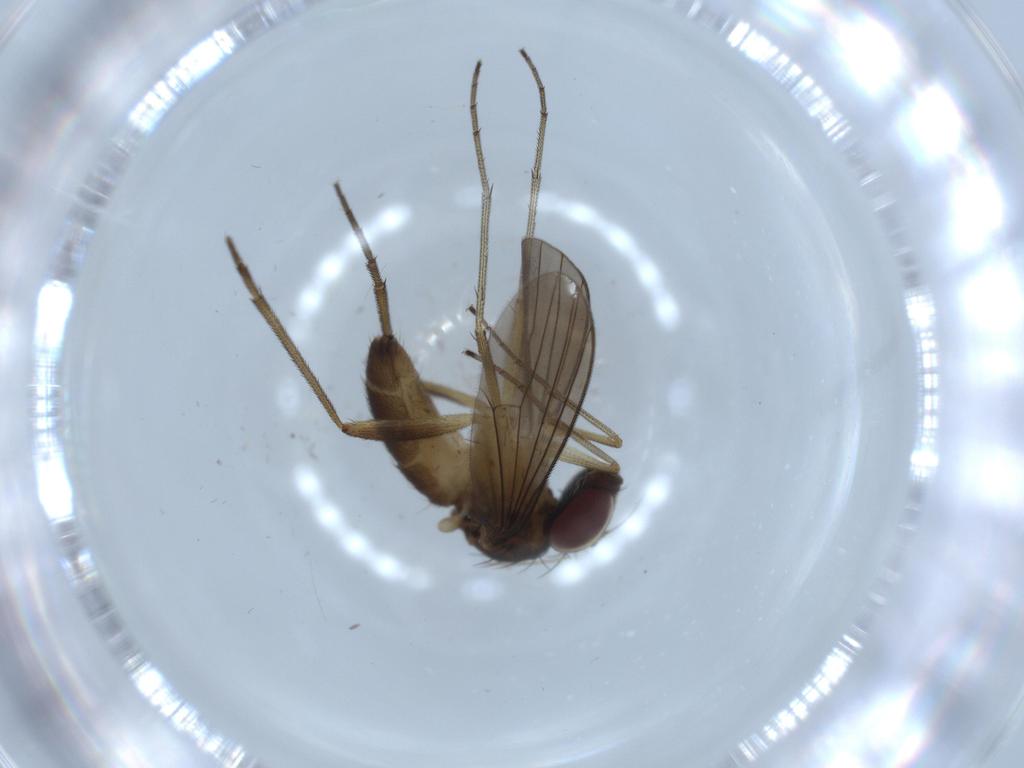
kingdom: Animalia
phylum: Arthropoda
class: Insecta
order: Diptera
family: Dolichopodidae
